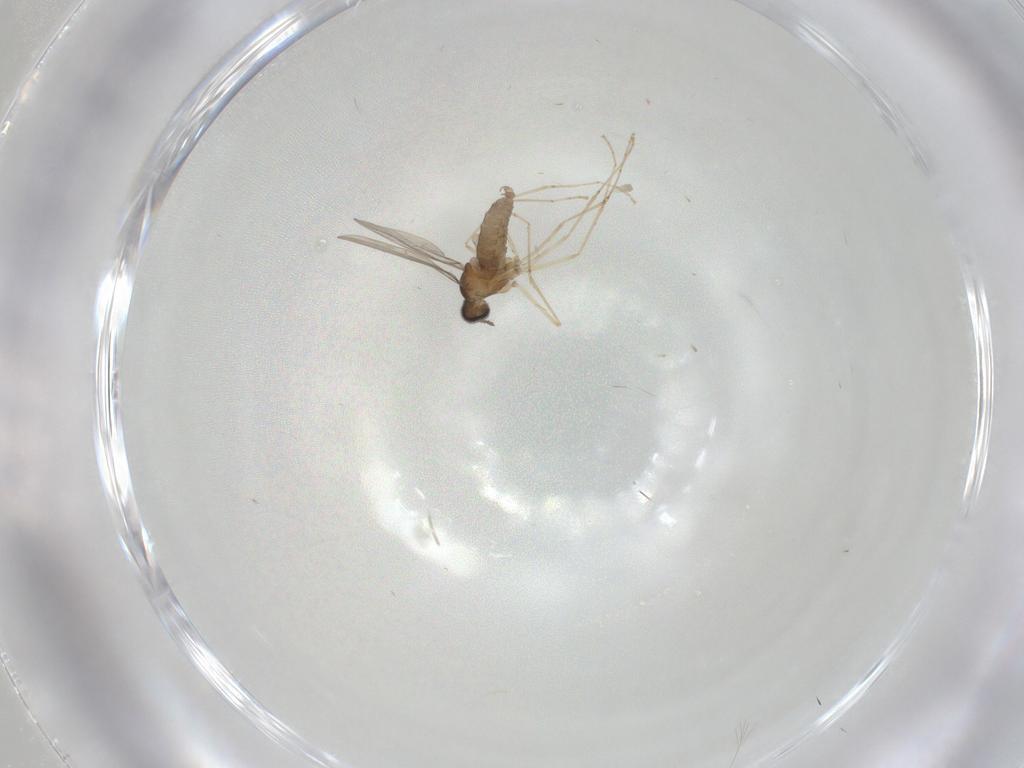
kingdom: Animalia
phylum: Arthropoda
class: Insecta
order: Diptera
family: Cecidomyiidae
